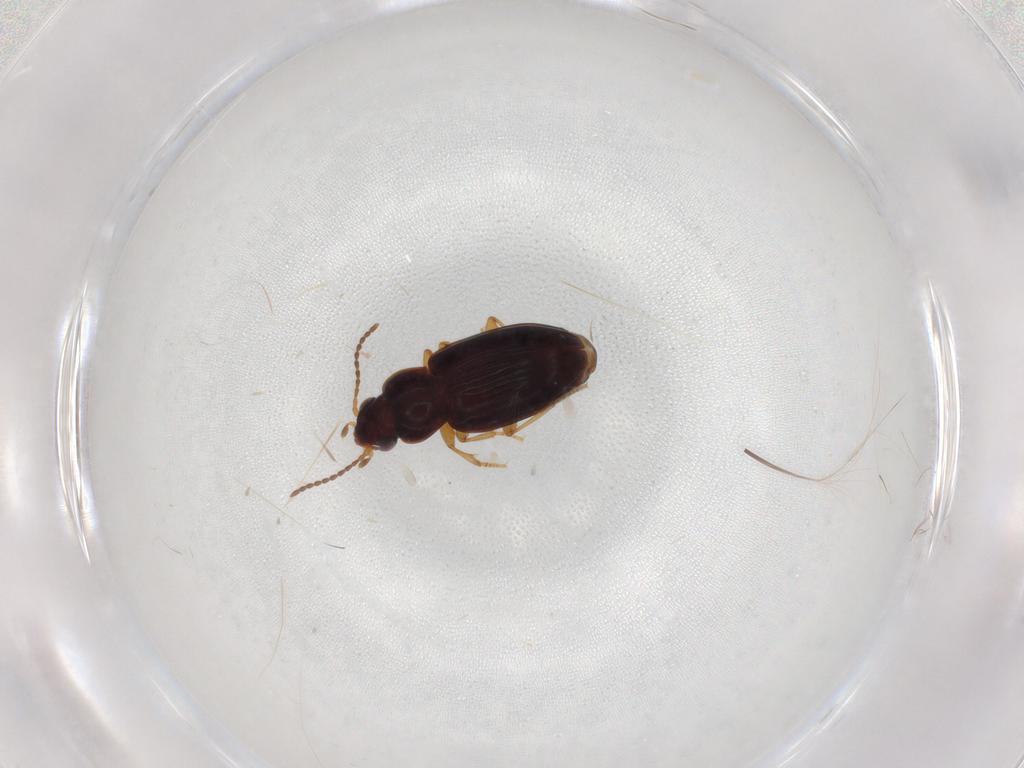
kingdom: Animalia
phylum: Arthropoda
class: Insecta
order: Coleoptera
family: Carabidae
